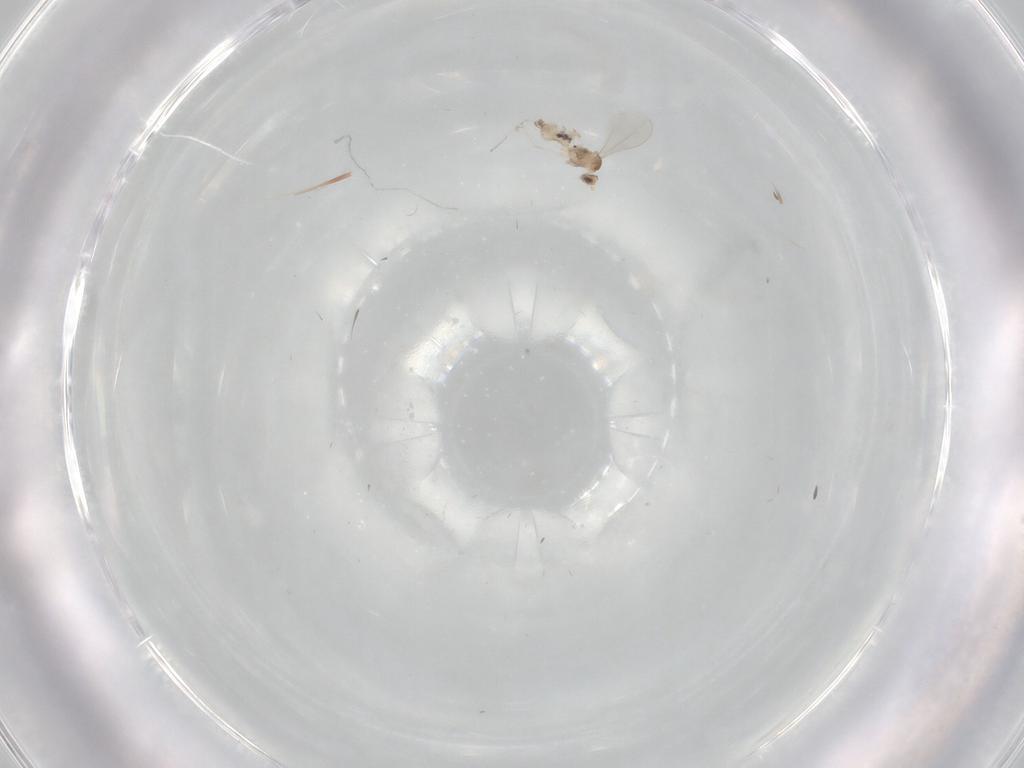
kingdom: Animalia
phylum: Arthropoda
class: Insecta
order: Diptera
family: Cecidomyiidae
